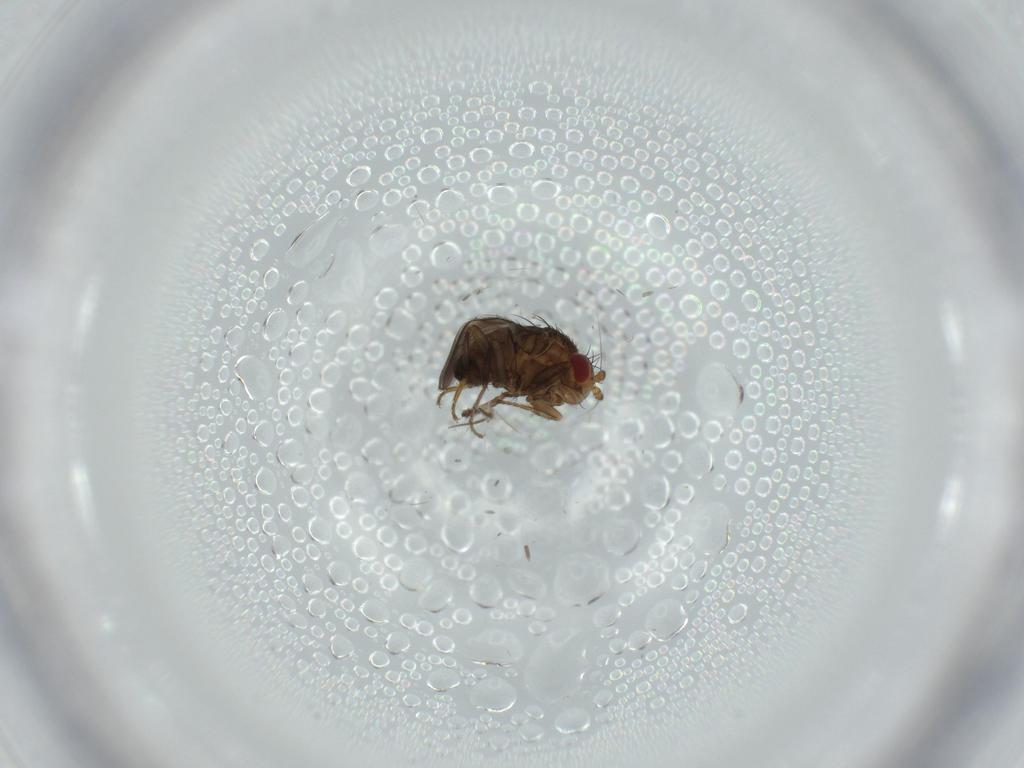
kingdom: Animalia
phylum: Arthropoda
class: Insecta
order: Diptera
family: Chironomidae
